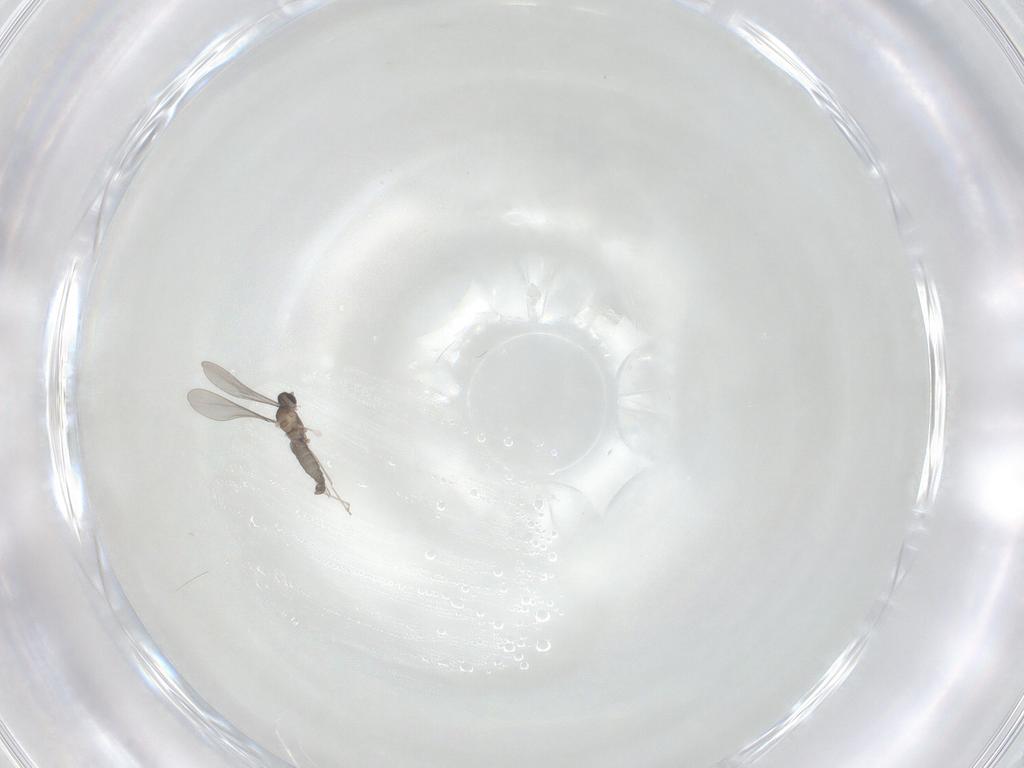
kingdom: Animalia
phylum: Arthropoda
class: Insecta
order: Diptera
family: Cecidomyiidae
